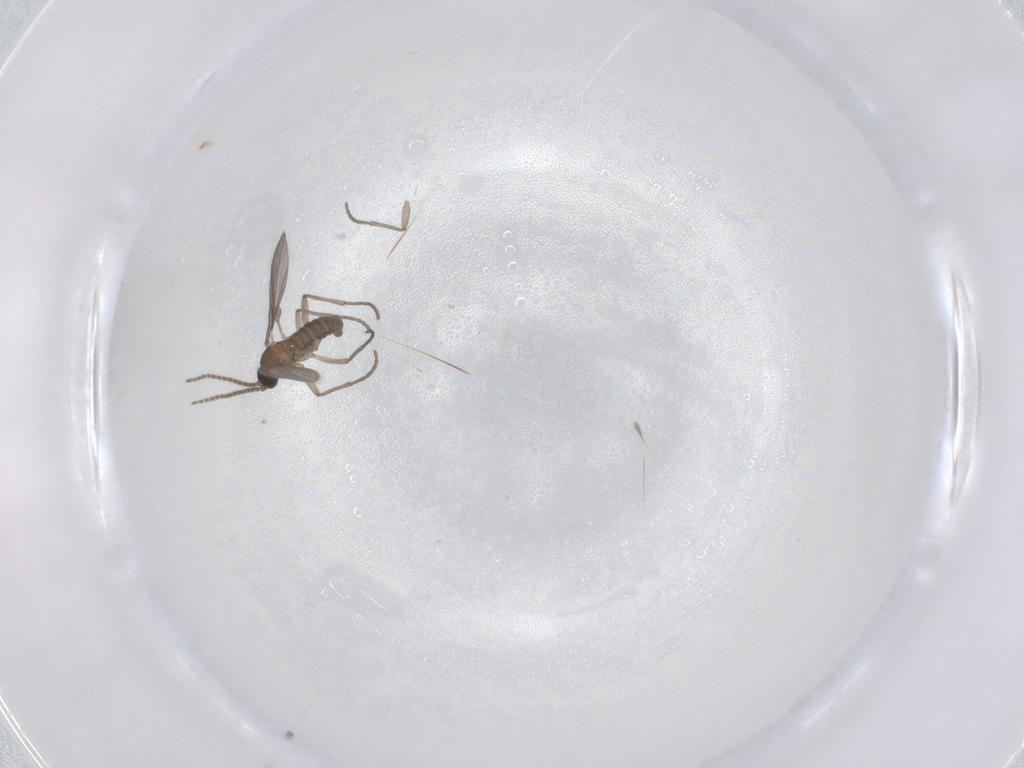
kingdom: Animalia
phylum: Arthropoda
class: Insecta
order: Diptera
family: Sciaridae
